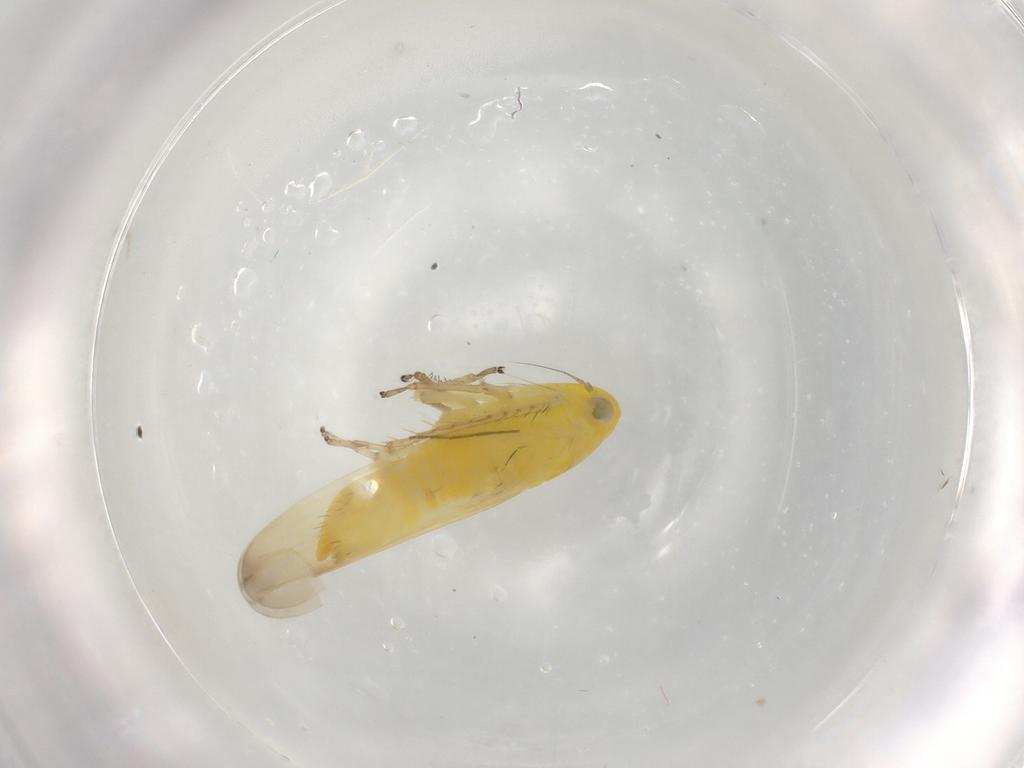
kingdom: Animalia
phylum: Arthropoda
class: Insecta
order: Hemiptera
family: Cicadellidae
